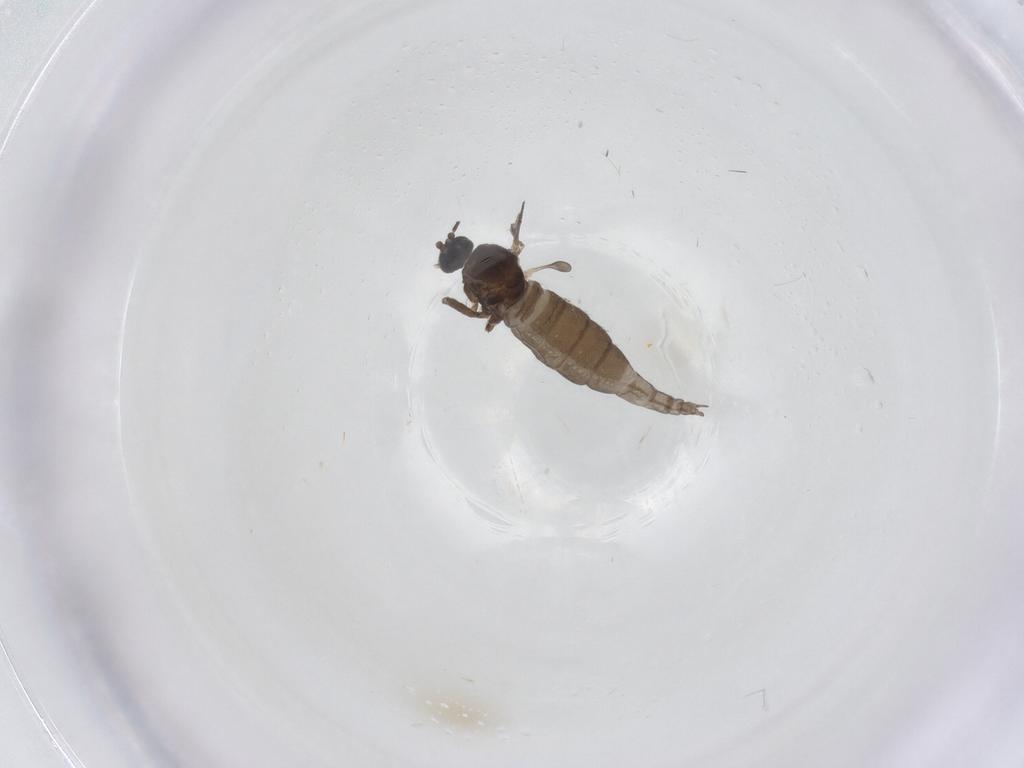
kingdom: Animalia
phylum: Arthropoda
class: Insecta
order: Diptera
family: Sciaridae
